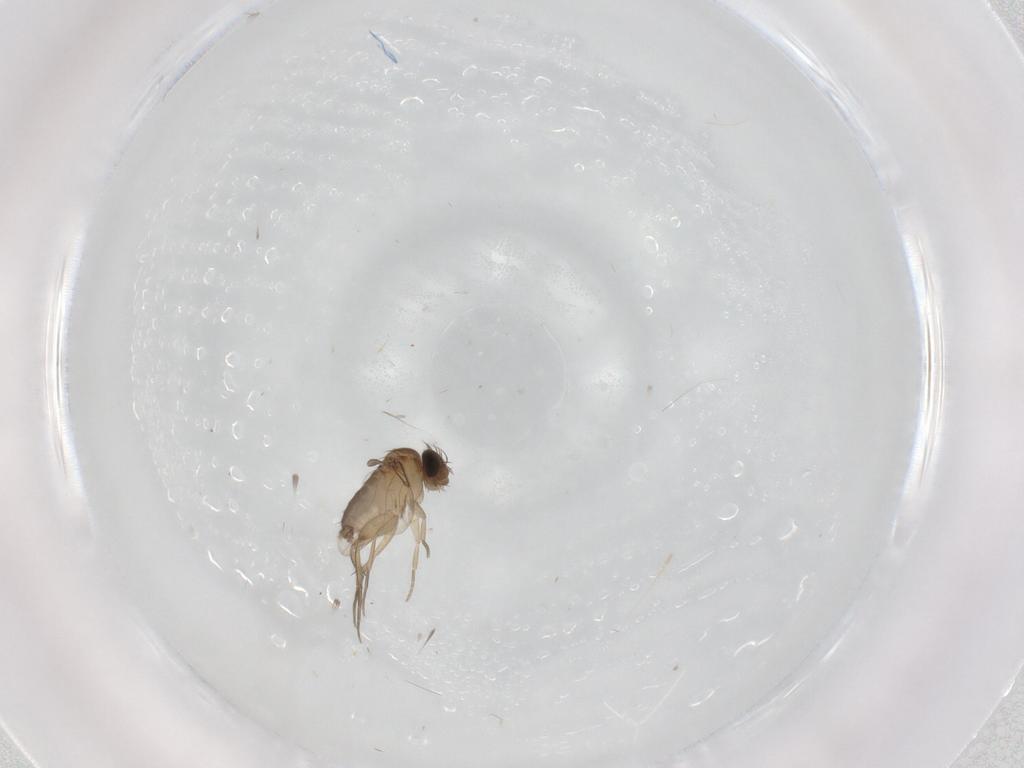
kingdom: Animalia
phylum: Arthropoda
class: Insecta
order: Diptera
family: Phoridae
